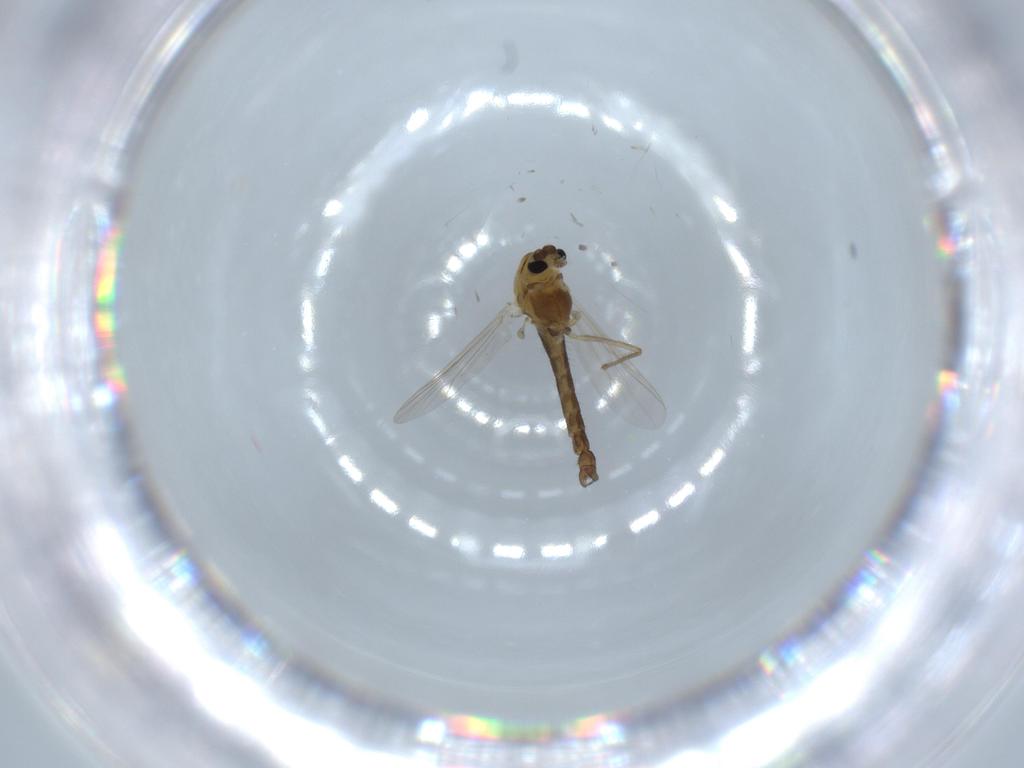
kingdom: Animalia
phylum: Arthropoda
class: Insecta
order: Diptera
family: Chironomidae
